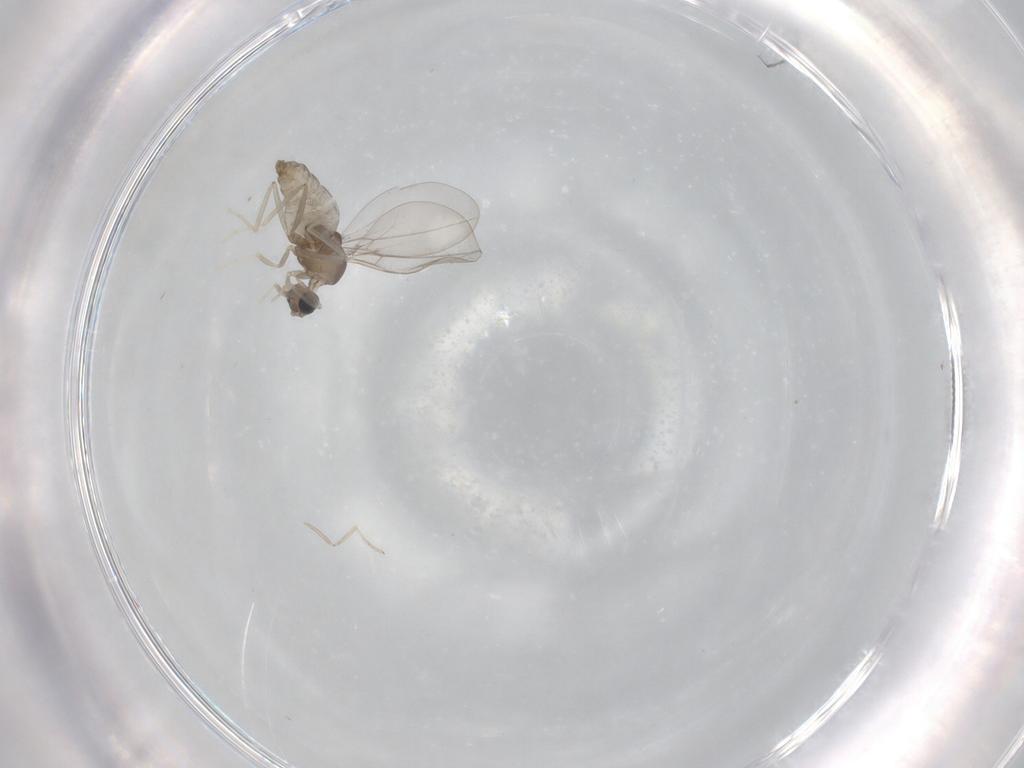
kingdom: Animalia
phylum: Arthropoda
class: Insecta
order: Diptera
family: Cecidomyiidae
